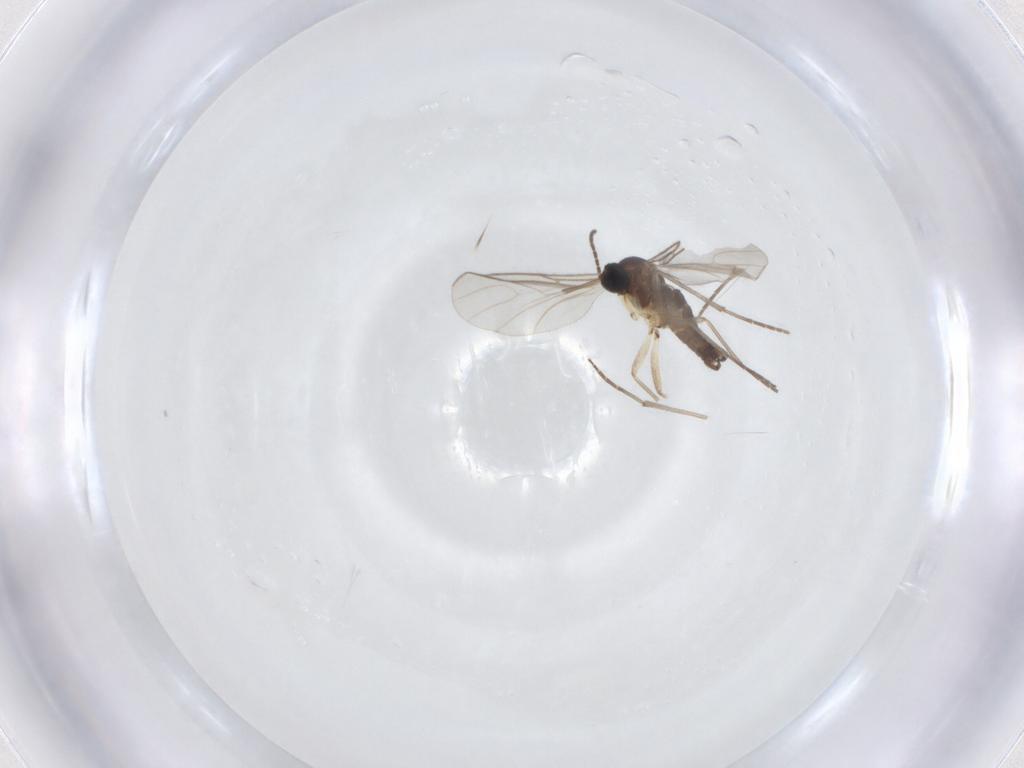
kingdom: Animalia
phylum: Arthropoda
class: Insecta
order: Diptera
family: Sciaridae
